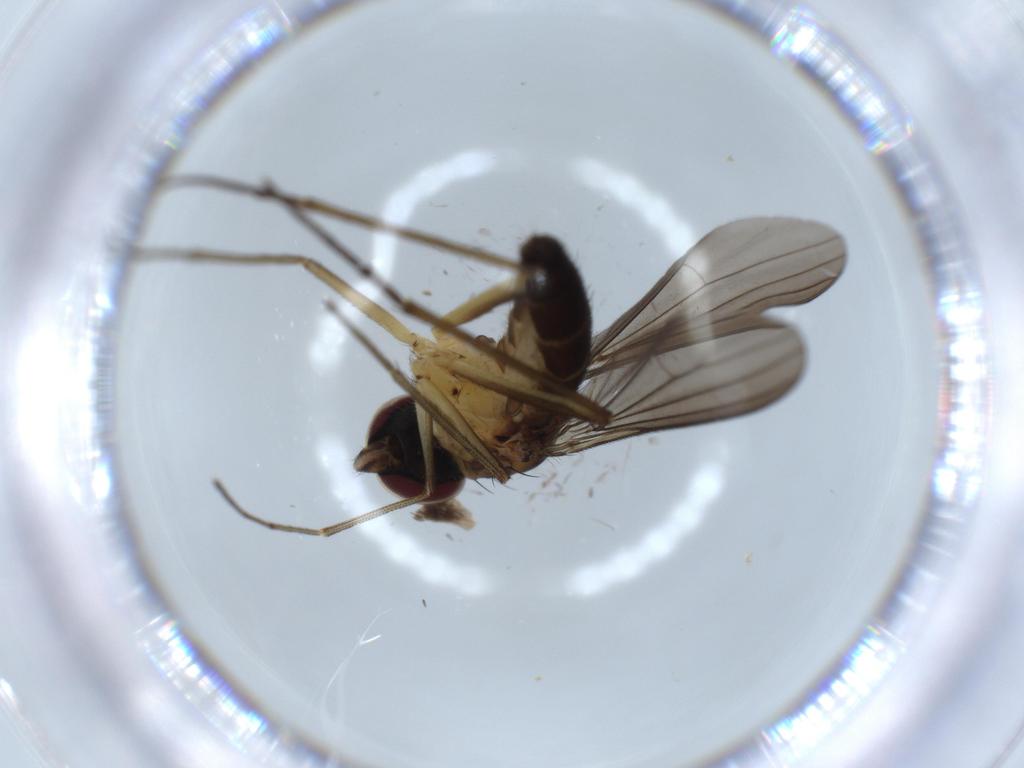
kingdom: Animalia
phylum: Arthropoda
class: Insecta
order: Diptera
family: Dolichopodidae
